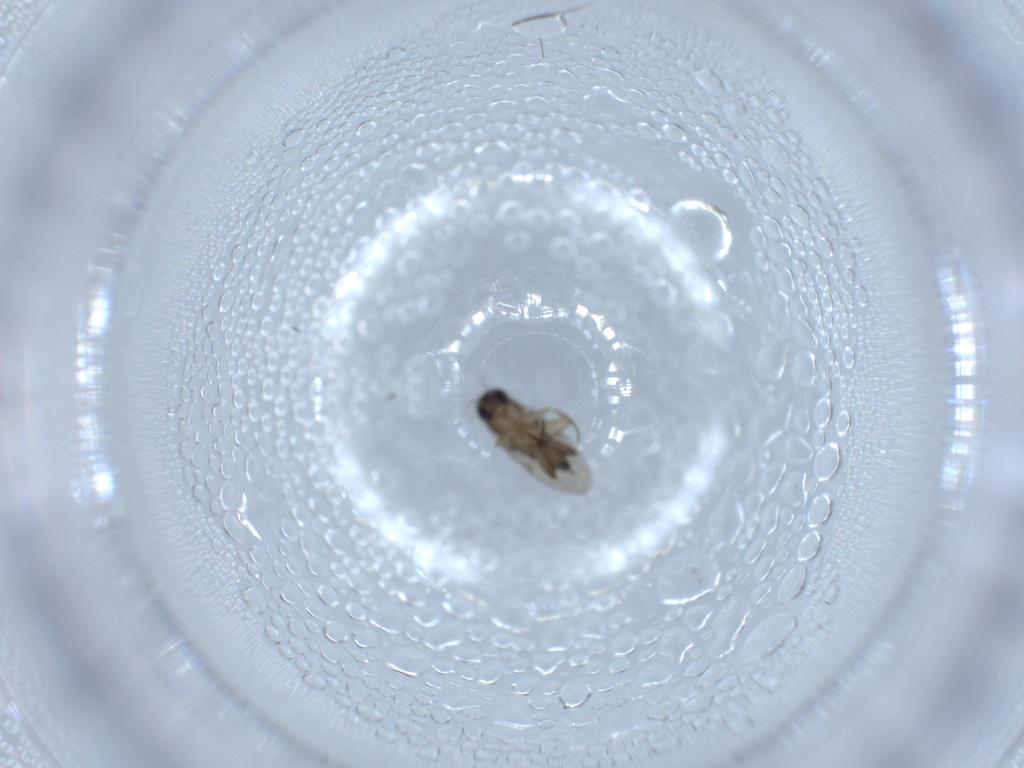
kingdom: Animalia
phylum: Arthropoda
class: Insecta
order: Diptera
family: Phoridae
